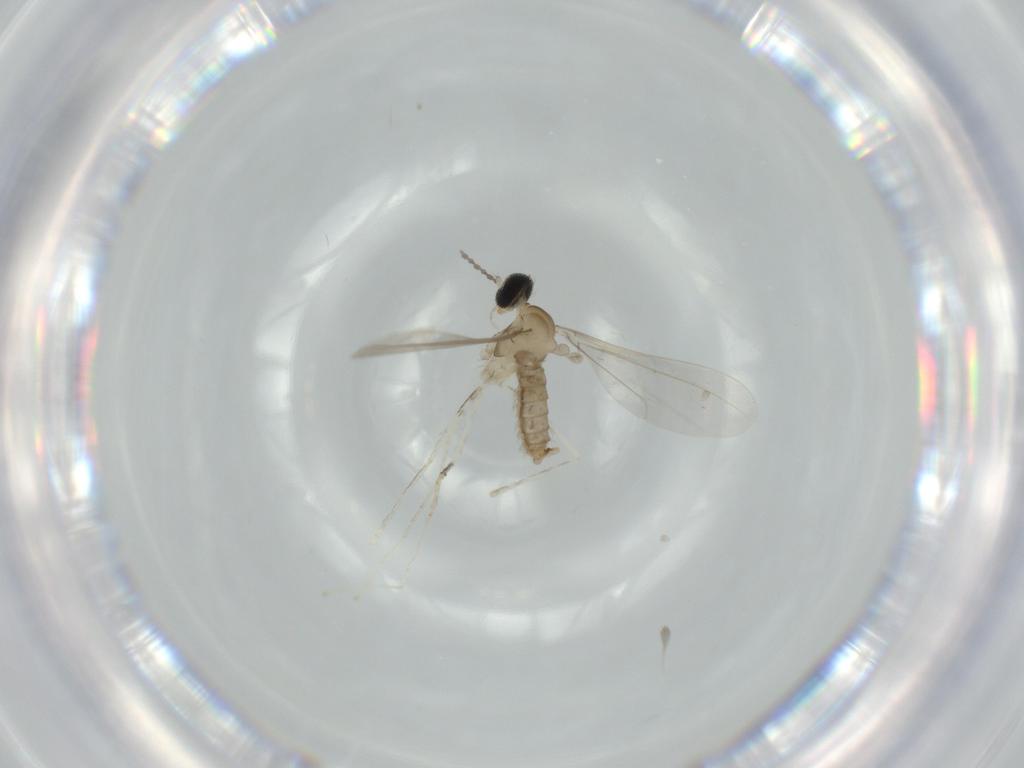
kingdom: Animalia
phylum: Arthropoda
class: Insecta
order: Diptera
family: Cecidomyiidae
